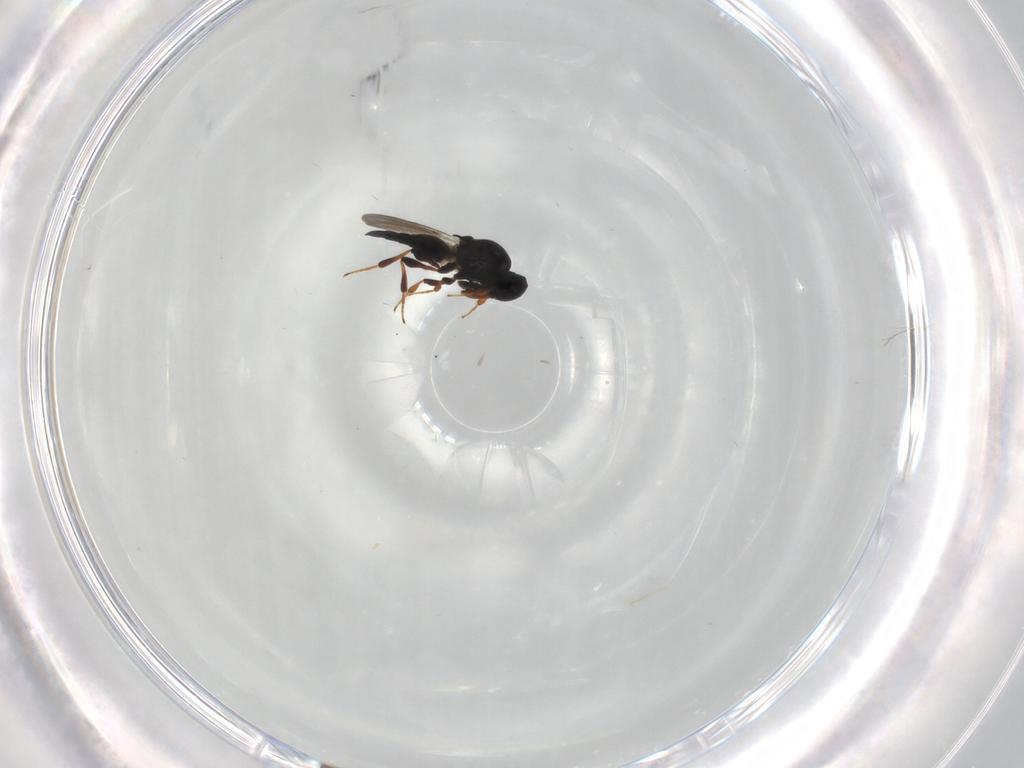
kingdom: Animalia
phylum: Arthropoda
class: Insecta
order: Hymenoptera
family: Platygastridae
